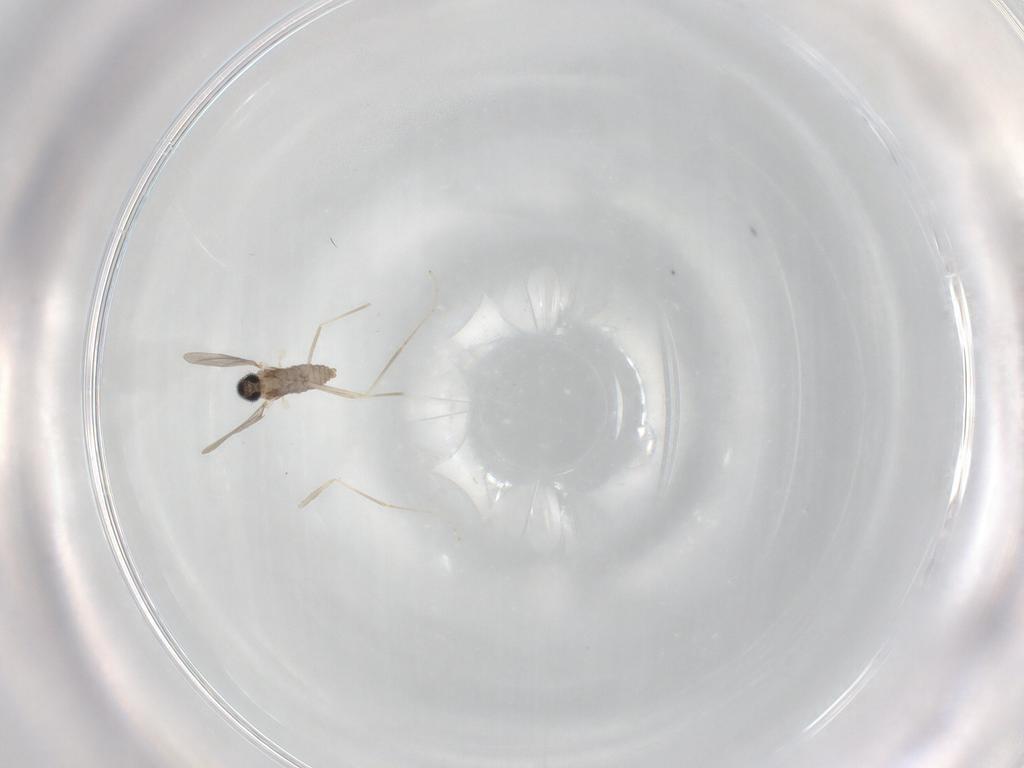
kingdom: Animalia
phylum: Arthropoda
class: Insecta
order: Diptera
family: Cecidomyiidae
